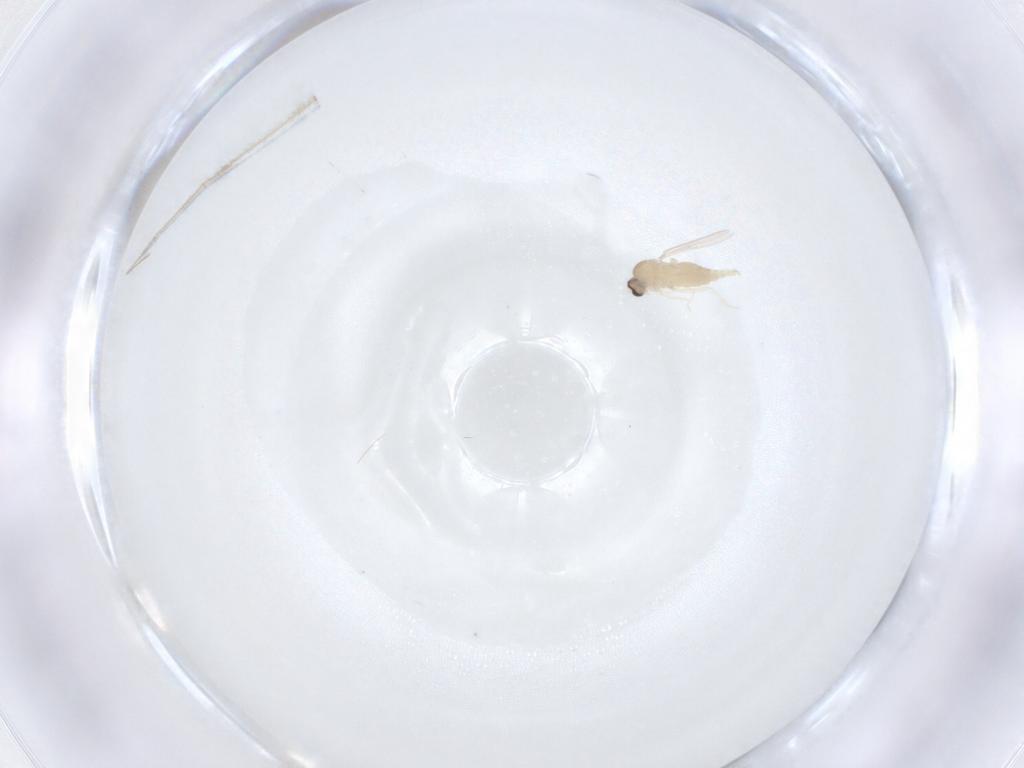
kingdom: Animalia
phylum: Arthropoda
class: Insecta
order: Diptera
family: Cecidomyiidae
